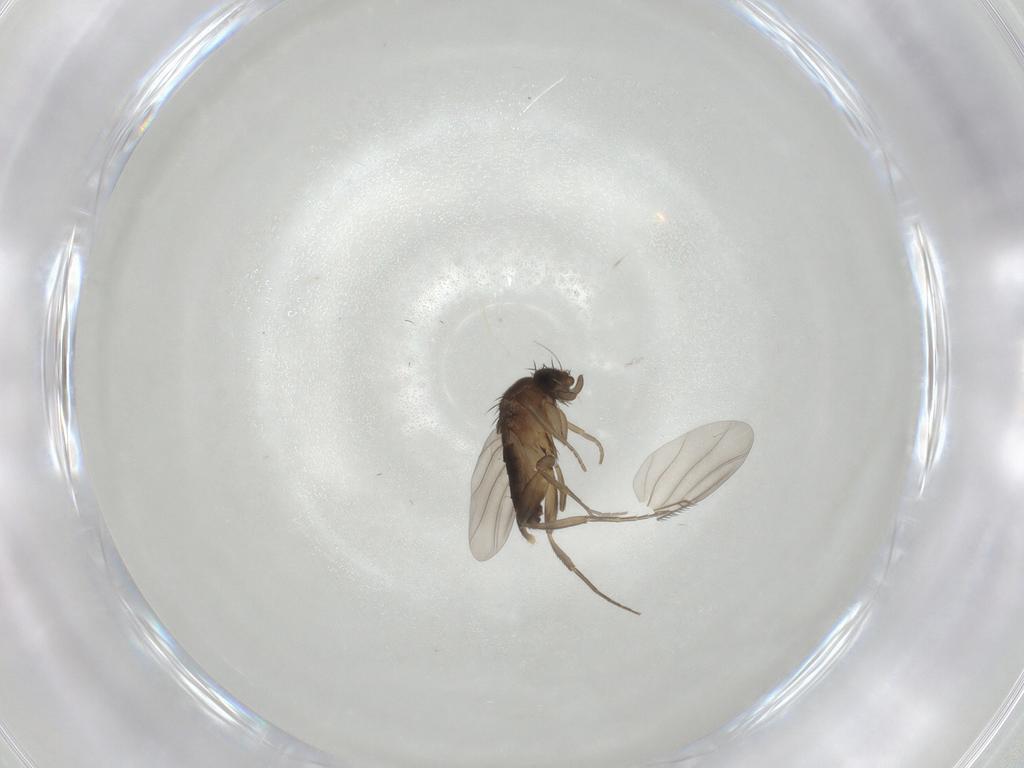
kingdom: Animalia
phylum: Arthropoda
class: Insecta
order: Diptera
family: Phoridae
